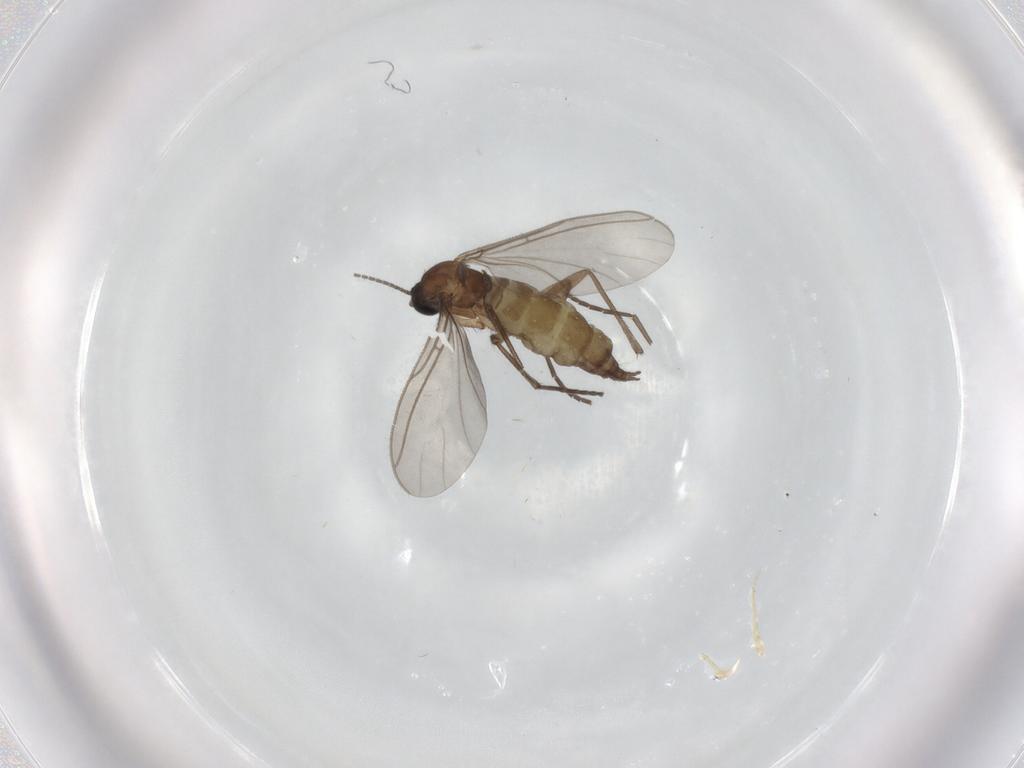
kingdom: Animalia
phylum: Arthropoda
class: Insecta
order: Diptera
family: Sciaridae
